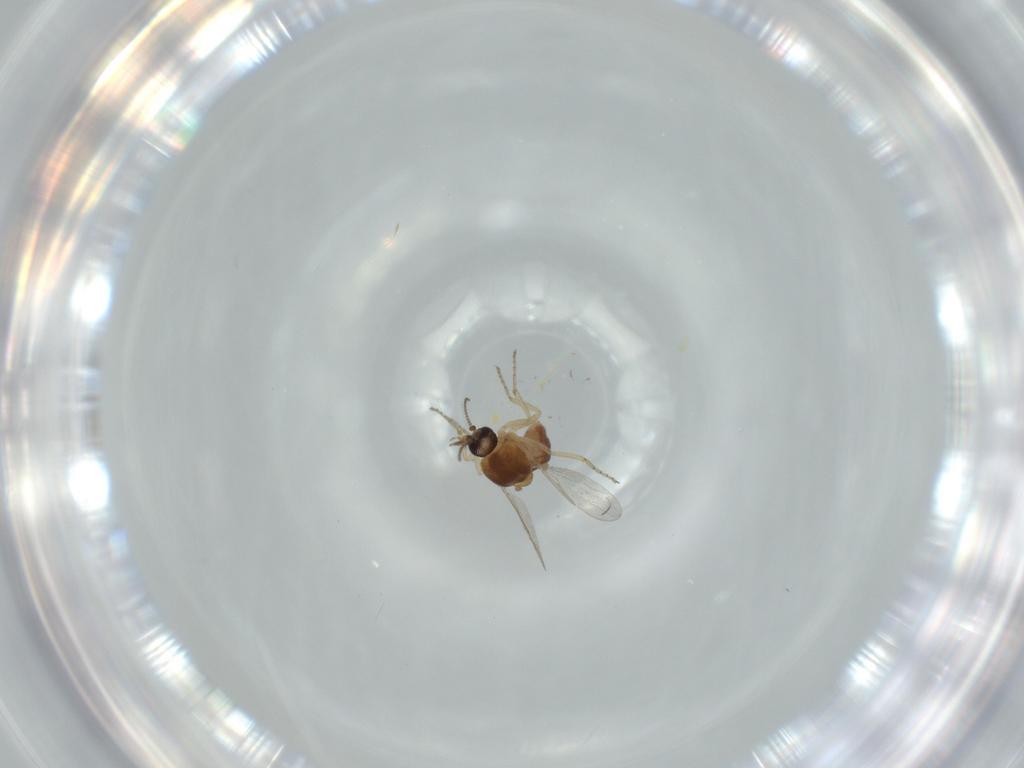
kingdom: Animalia
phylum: Arthropoda
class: Insecta
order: Diptera
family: Ceratopogonidae
